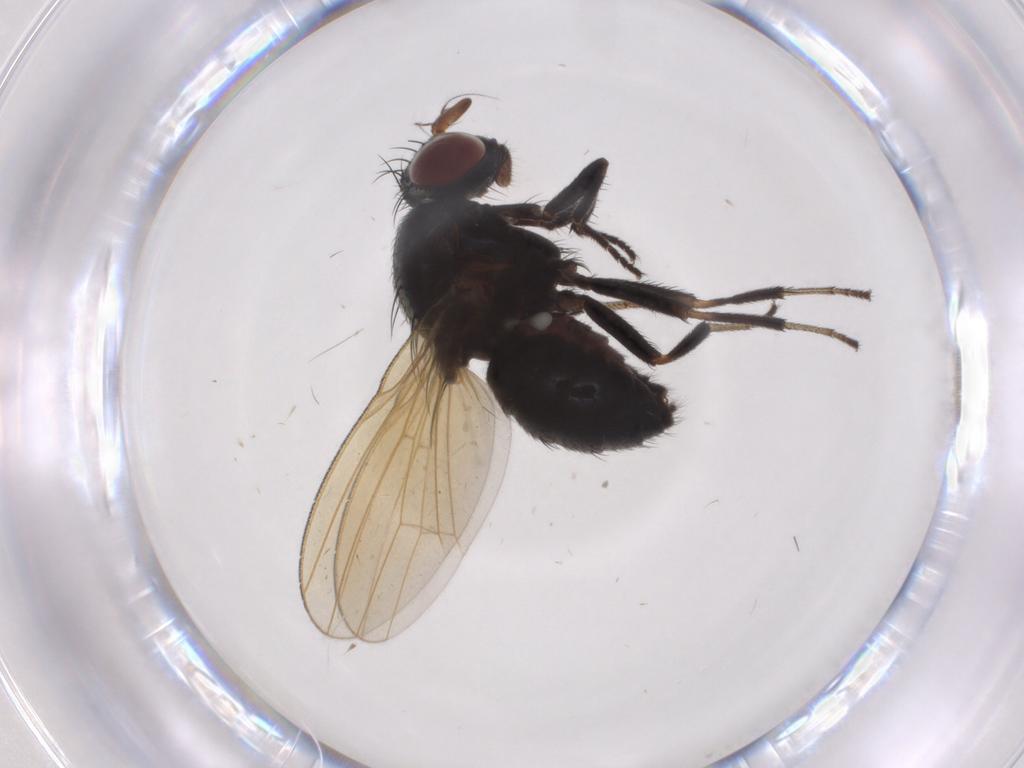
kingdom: Animalia
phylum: Arthropoda
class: Insecta
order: Diptera
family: Lauxaniidae
